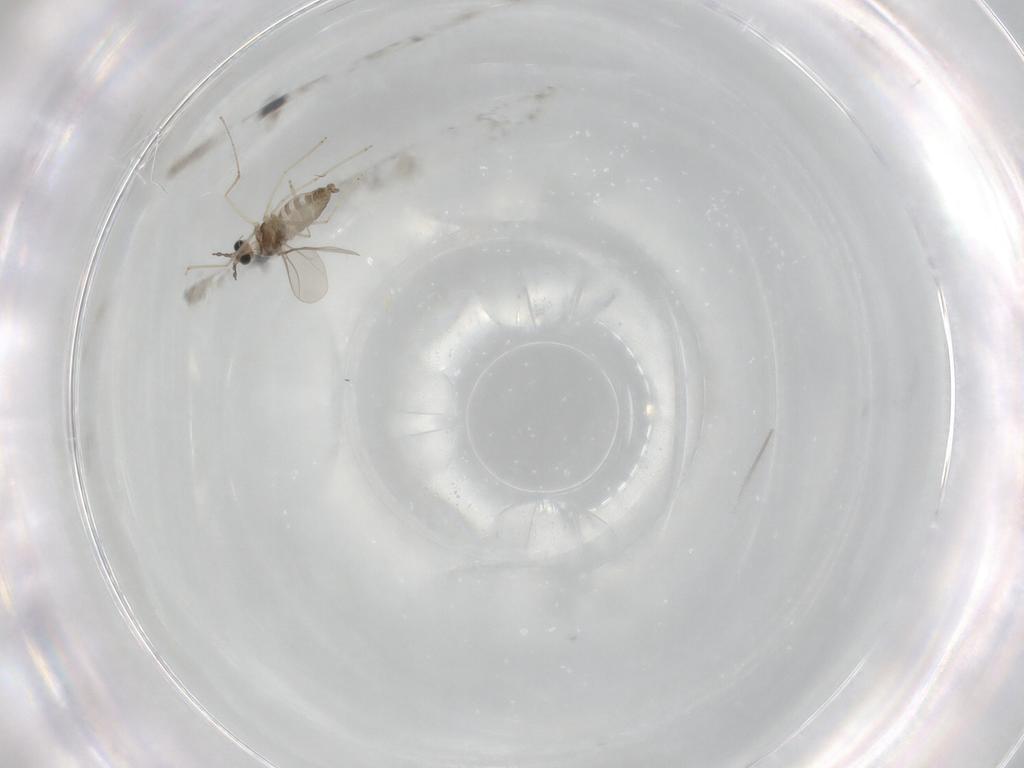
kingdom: Animalia
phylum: Arthropoda
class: Insecta
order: Diptera
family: Cecidomyiidae
